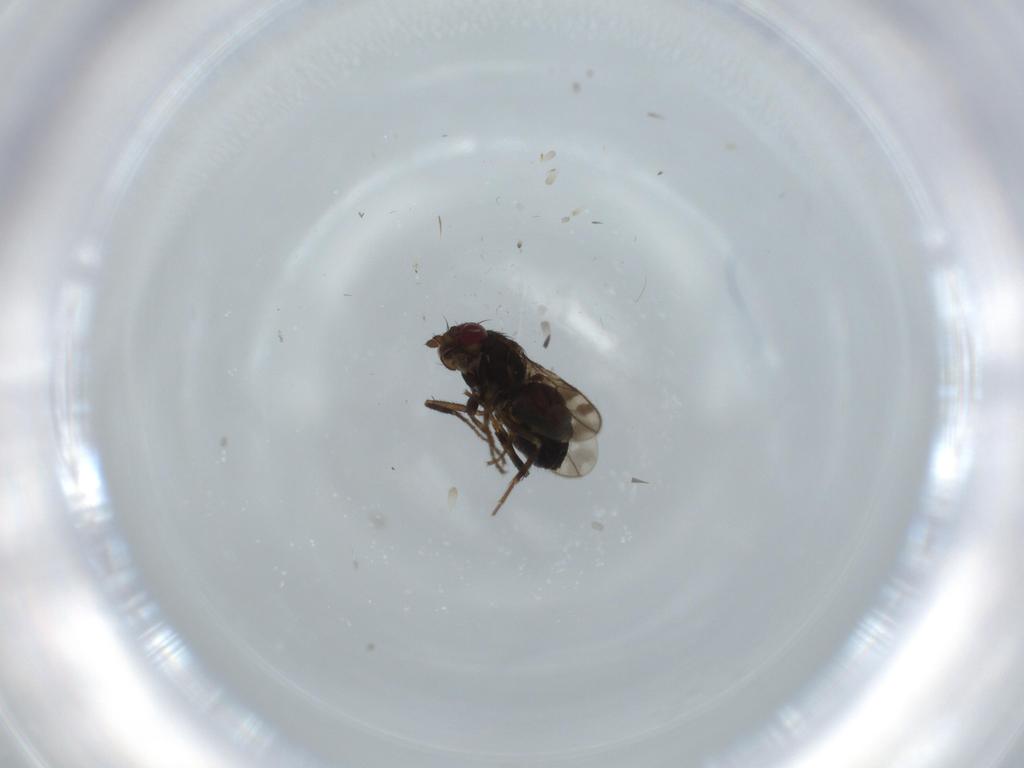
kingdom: Animalia
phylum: Arthropoda
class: Insecta
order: Diptera
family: Sphaeroceridae
